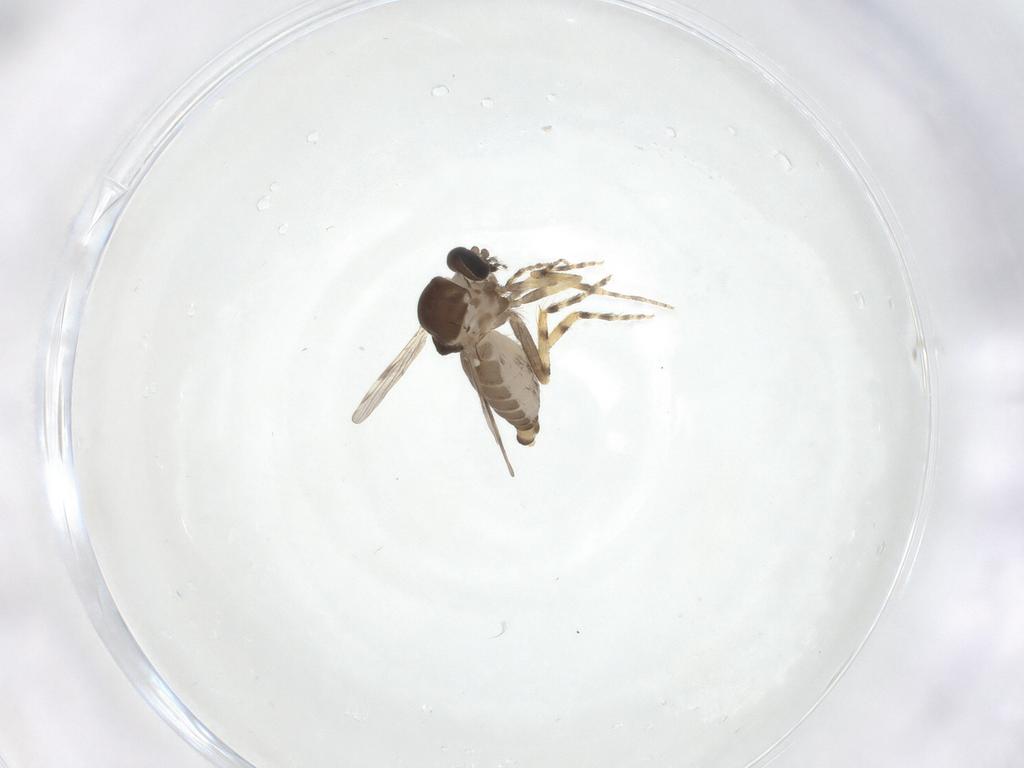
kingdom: Animalia
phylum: Arthropoda
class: Insecta
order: Diptera
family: Ceratopogonidae
